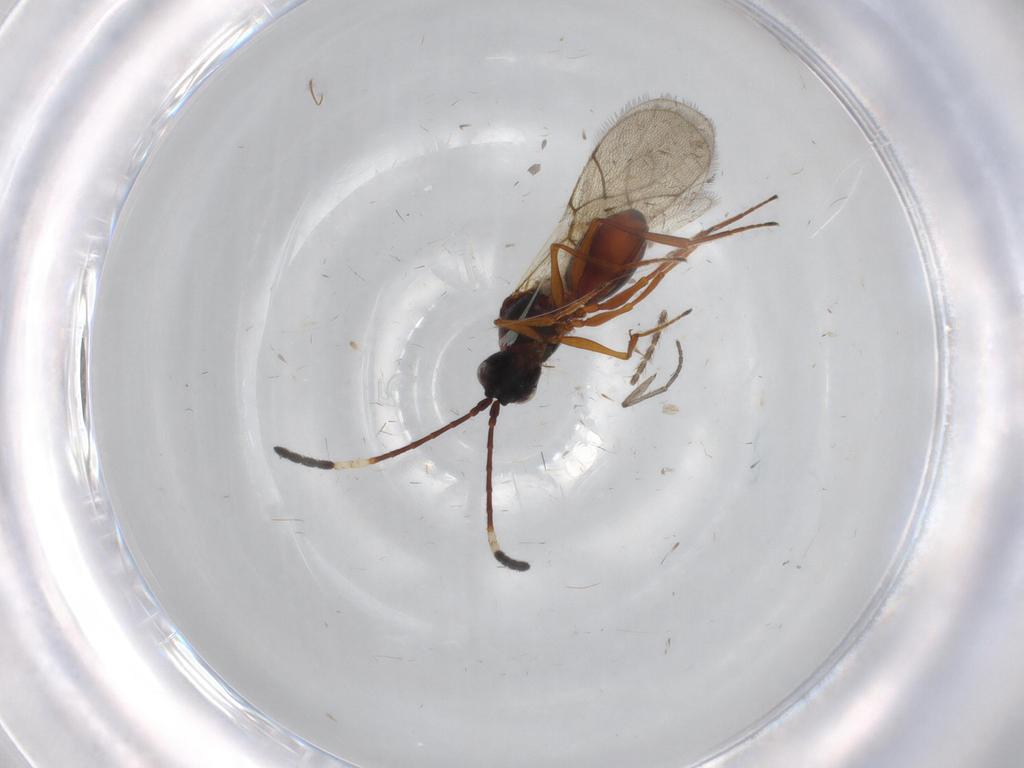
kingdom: Animalia
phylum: Arthropoda
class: Insecta
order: Hymenoptera
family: Figitidae
